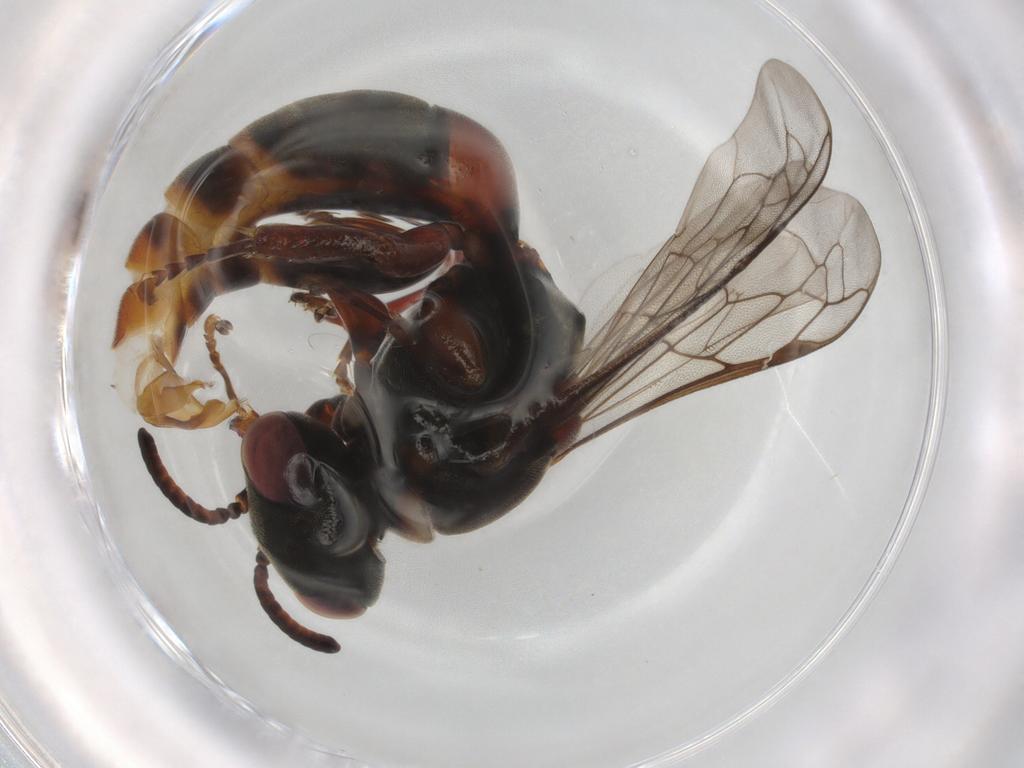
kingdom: Animalia
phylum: Arthropoda
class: Insecta
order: Hymenoptera
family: Crabronidae
